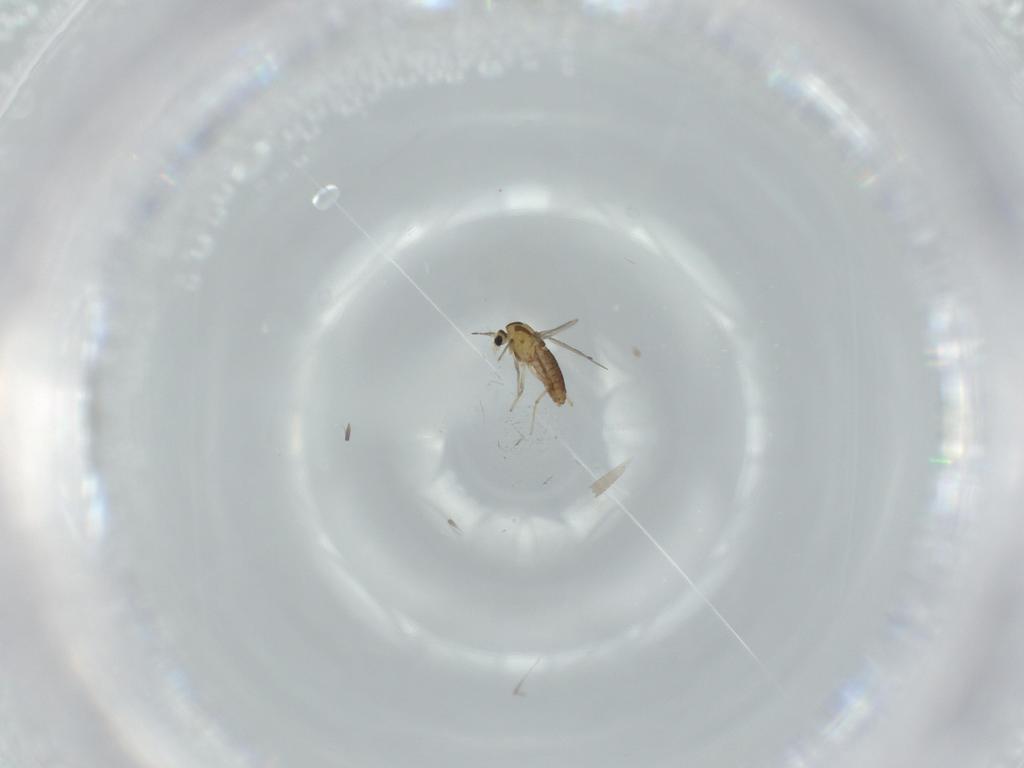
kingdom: Animalia
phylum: Arthropoda
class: Insecta
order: Diptera
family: Chironomidae
